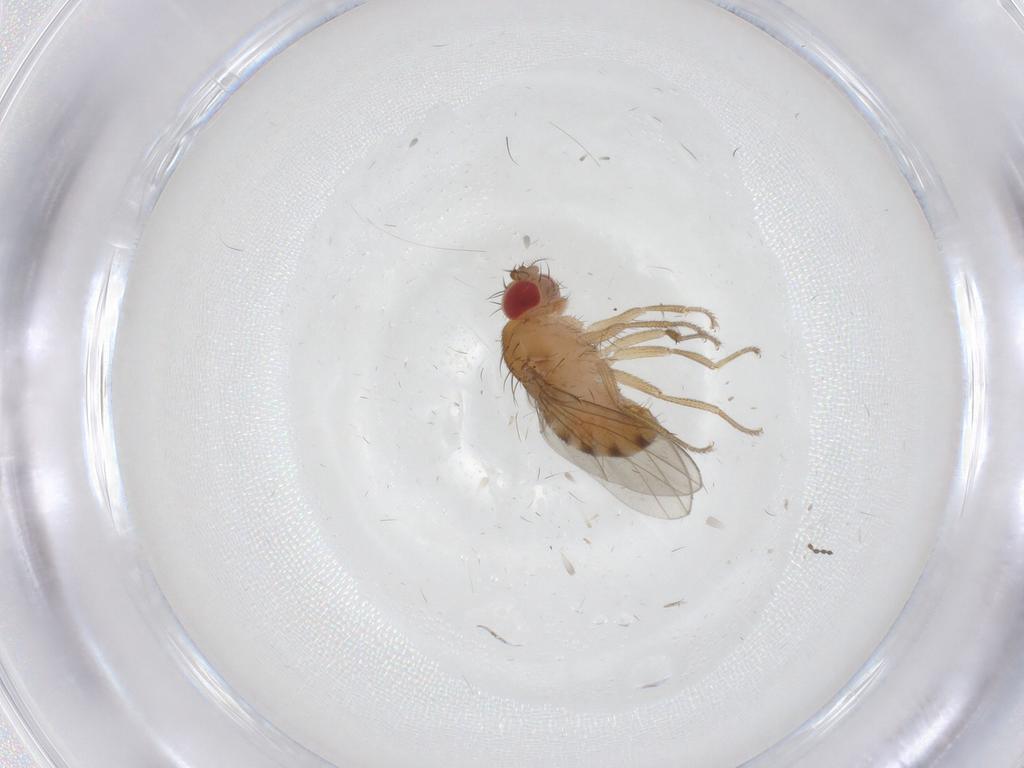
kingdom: Animalia
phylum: Arthropoda
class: Insecta
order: Diptera
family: Drosophilidae
